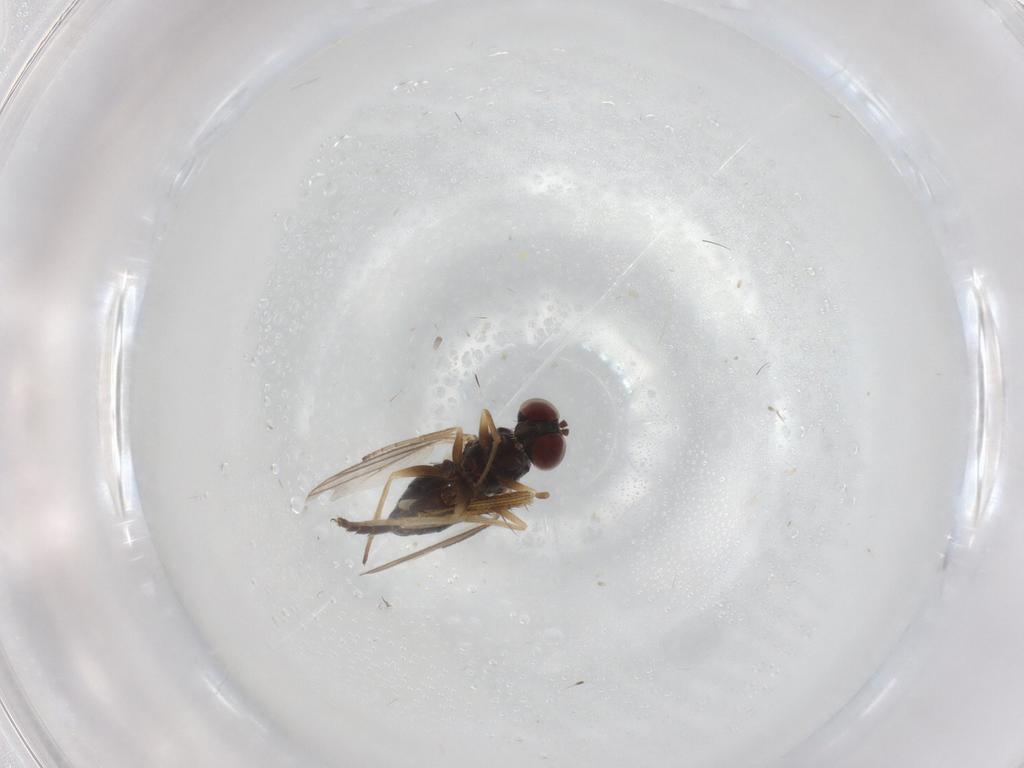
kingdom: Animalia
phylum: Arthropoda
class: Insecta
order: Diptera
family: Dolichopodidae
